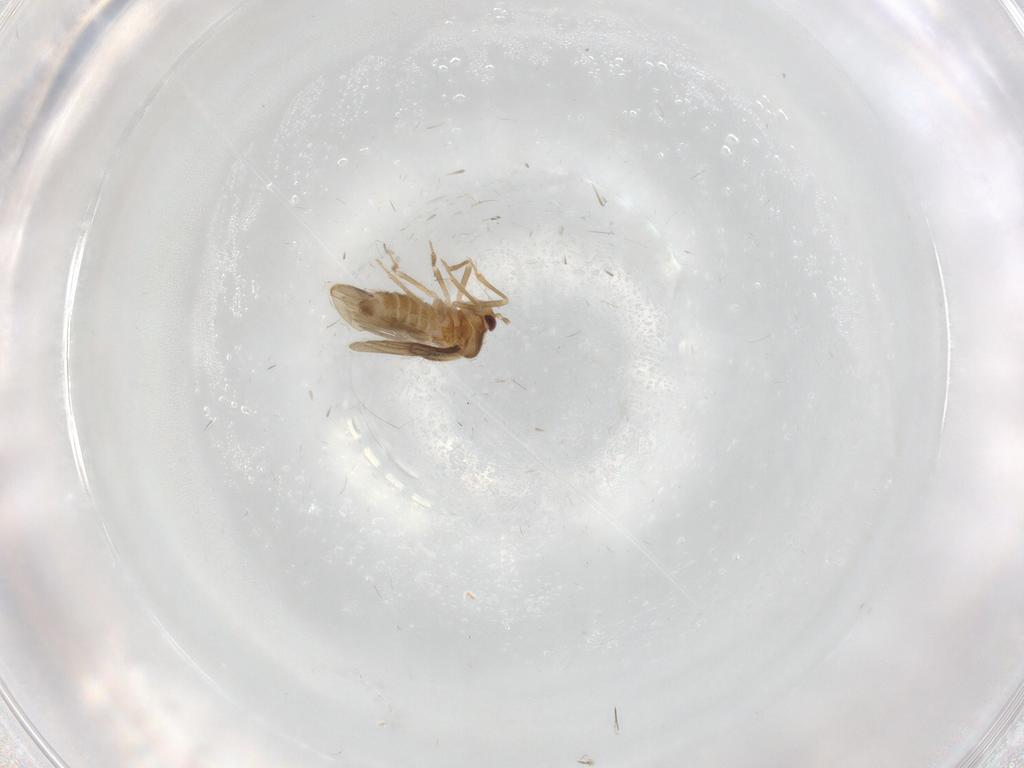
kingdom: Animalia
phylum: Arthropoda
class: Insecta
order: Hemiptera
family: Schizopteridae
